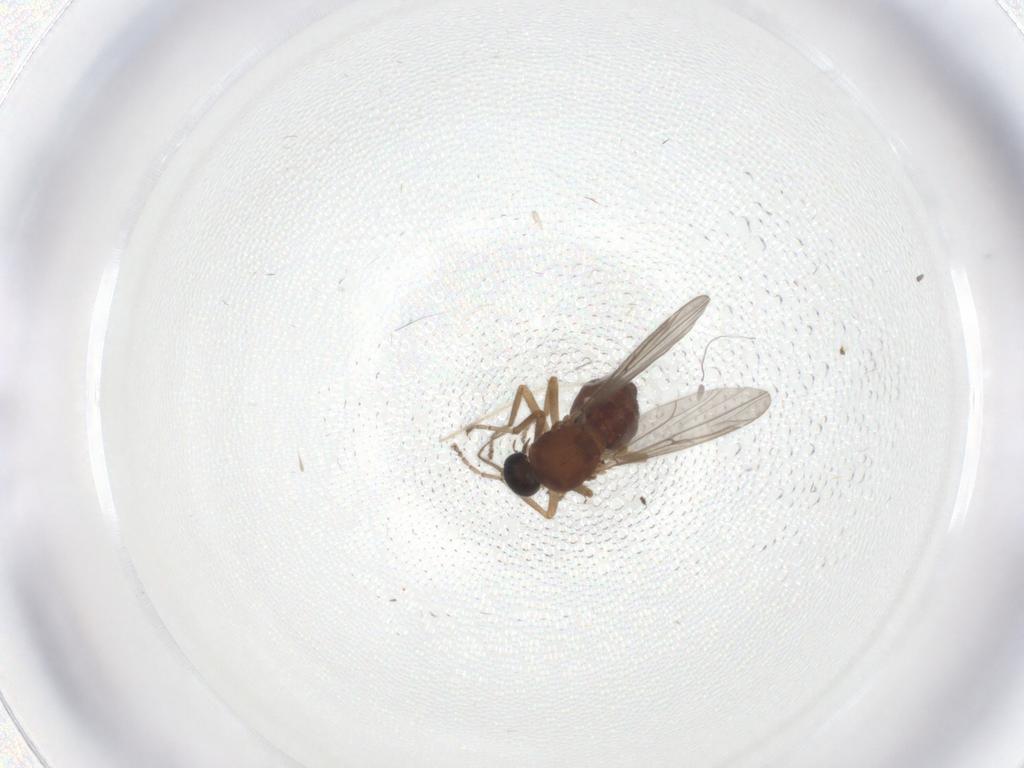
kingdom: Animalia
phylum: Arthropoda
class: Insecta
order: Diptera
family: Ceratopogonidae
